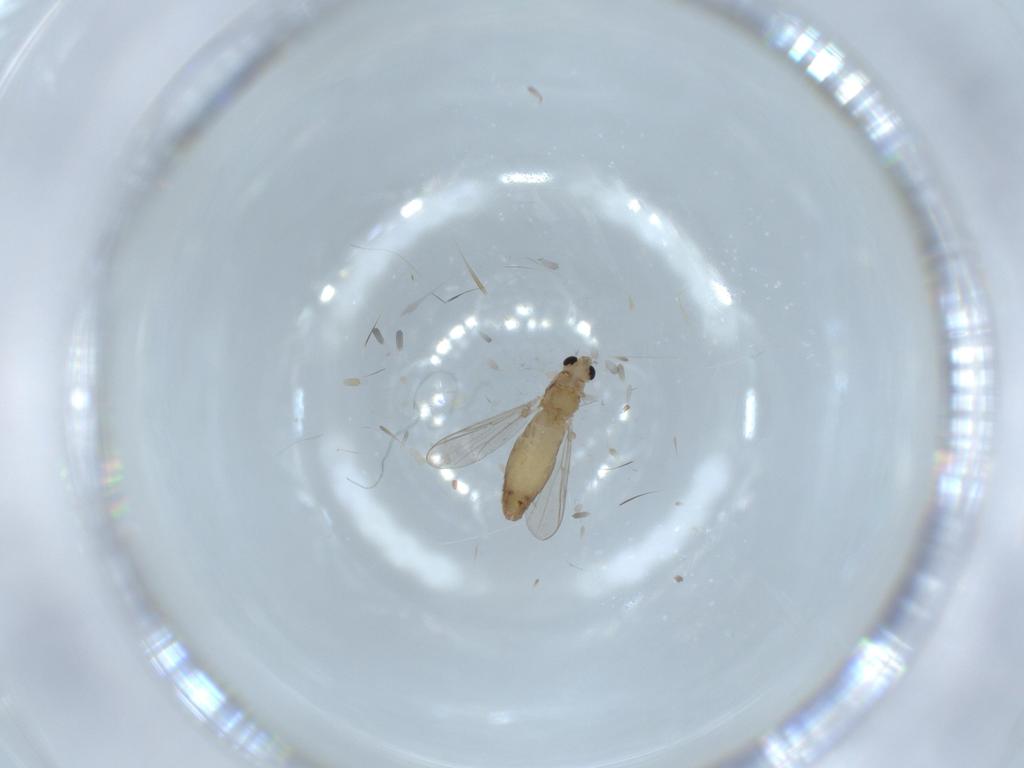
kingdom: Animalia
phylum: Arthropoda
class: Insecta
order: Diptera
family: Chironomidae
